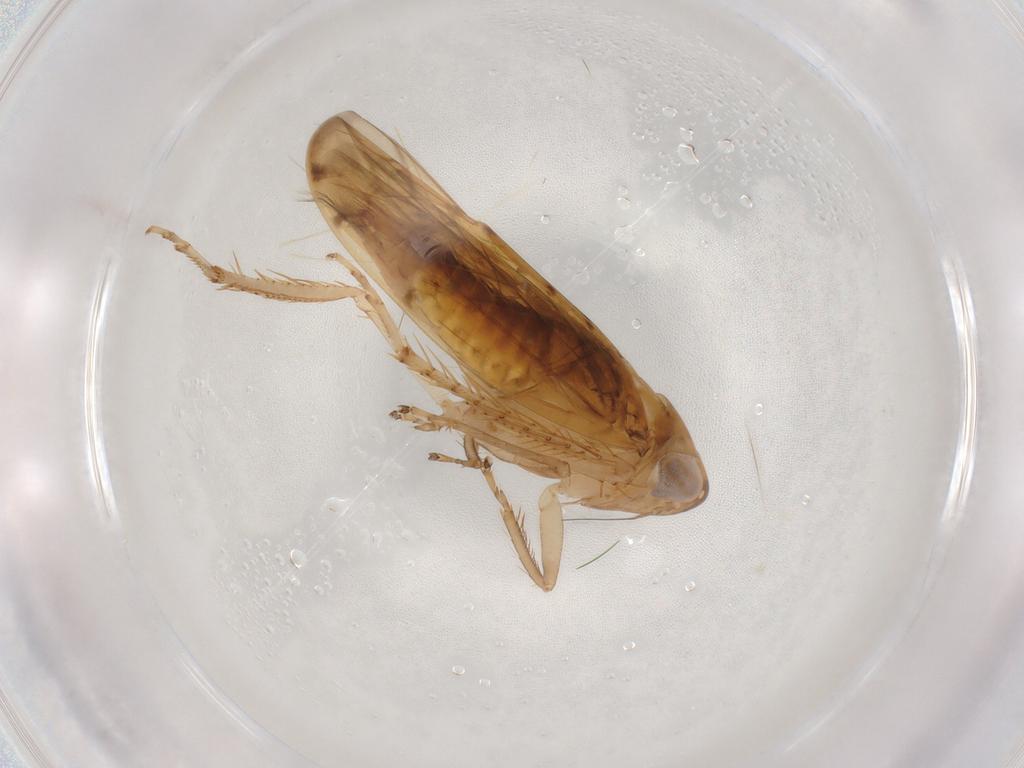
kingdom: Animalia
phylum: Arthropoda
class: Insecta
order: Hemiptera
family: Cicadellidae
